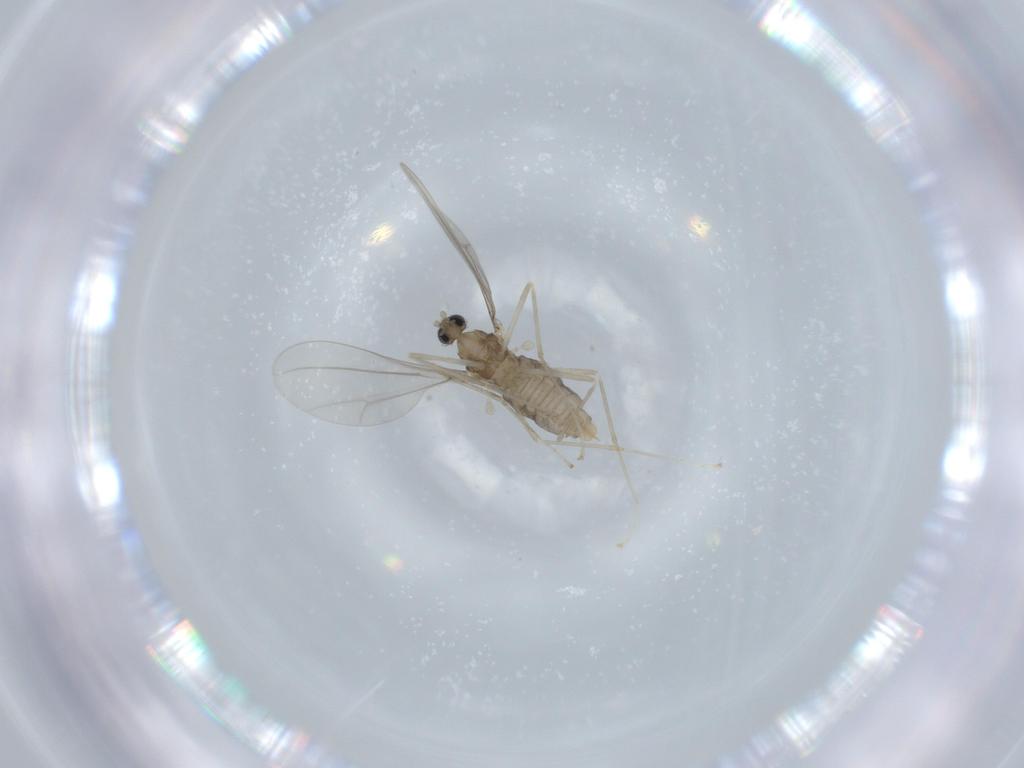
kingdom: Animalia
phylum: Arthropoda
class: Insecta
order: Diptera
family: Cecidomyiidae
